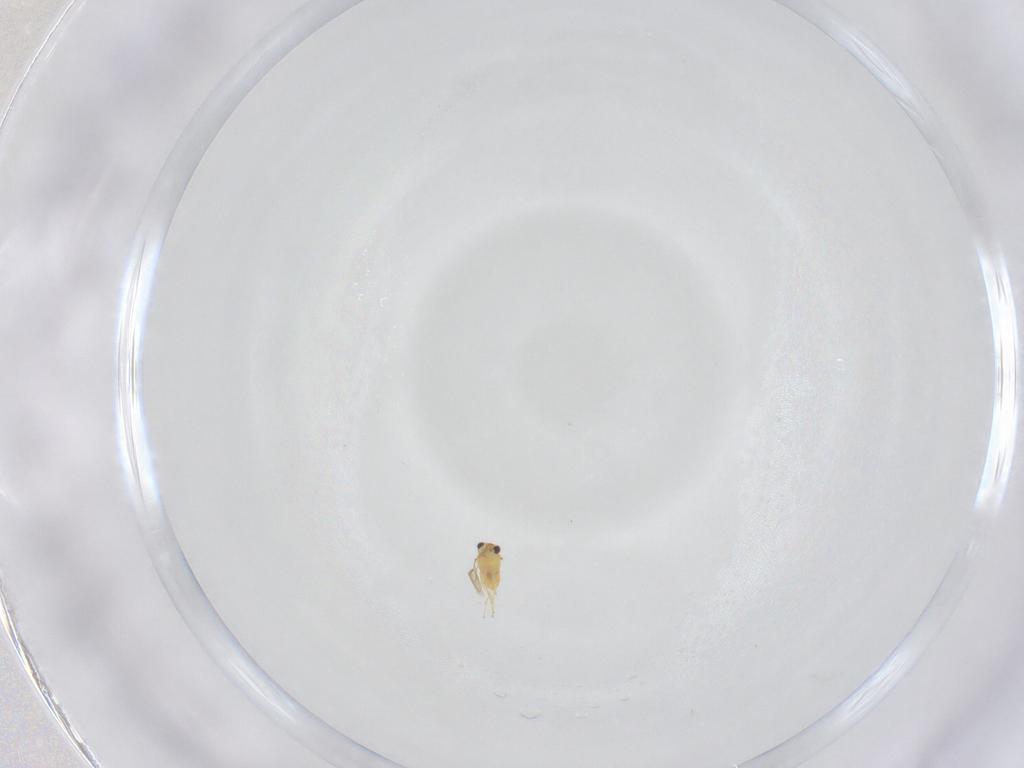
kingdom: Animalia
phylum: Arthropoda
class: Insecta
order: Hymenoptera
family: Aphelinidae
